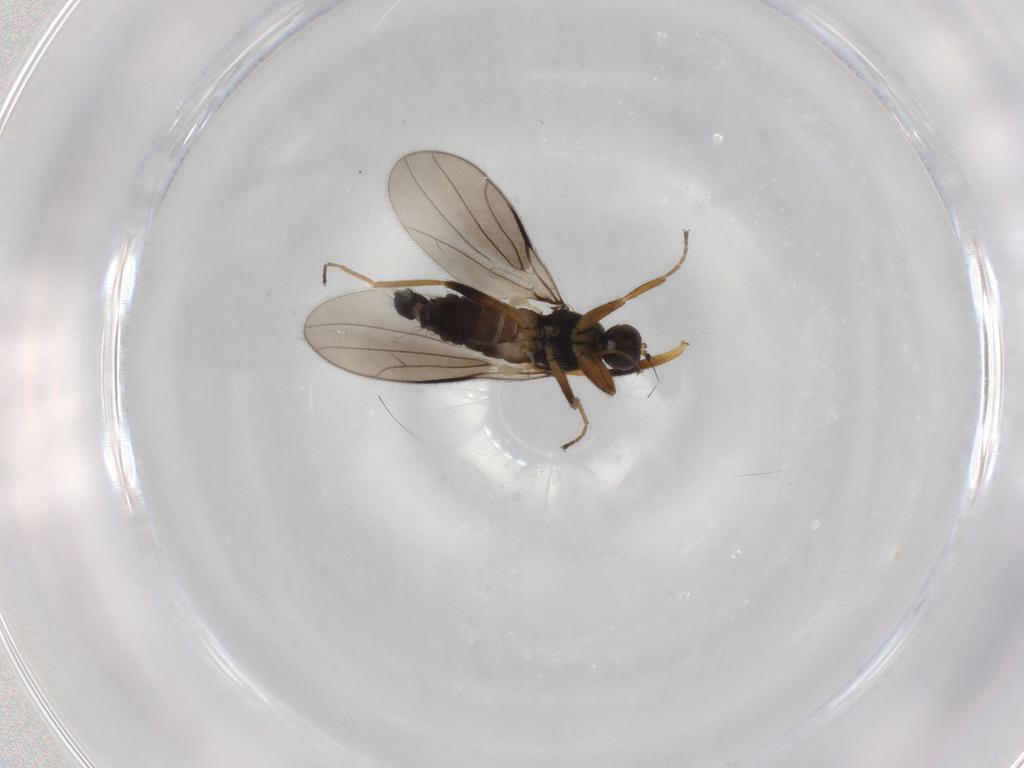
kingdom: Animalia
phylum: Arthropoda
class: Insecta
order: Diptera
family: Hybotidae
